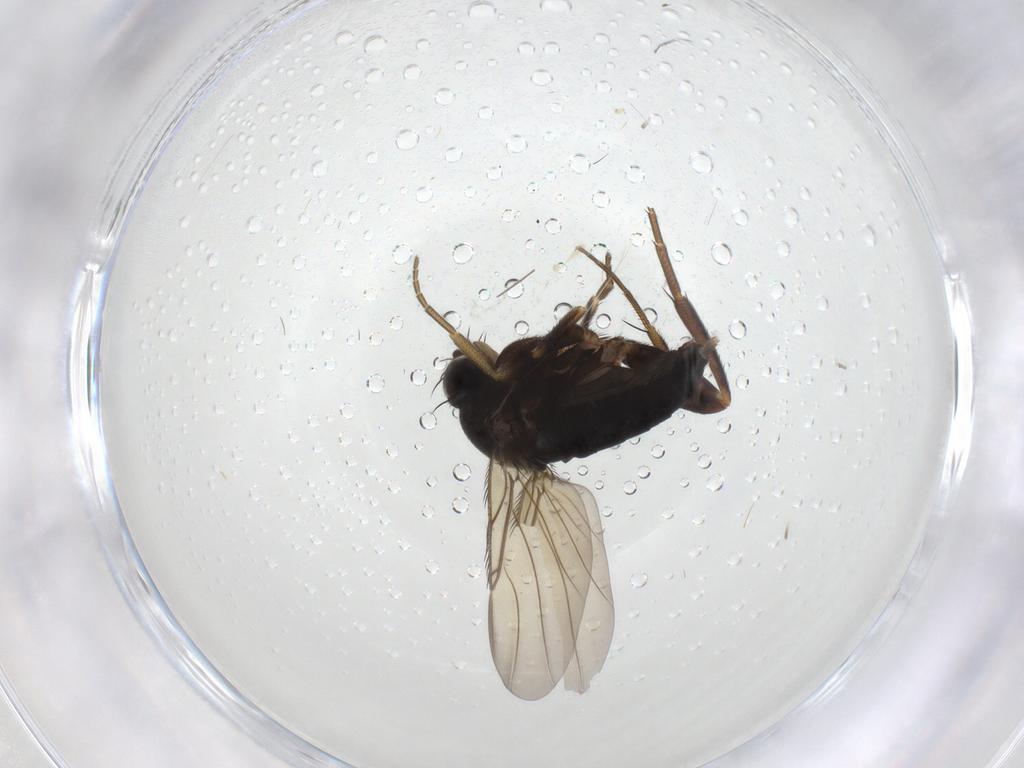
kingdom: Animalia
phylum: Arthropoda
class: Insecta
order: Diptera
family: Phoridae
